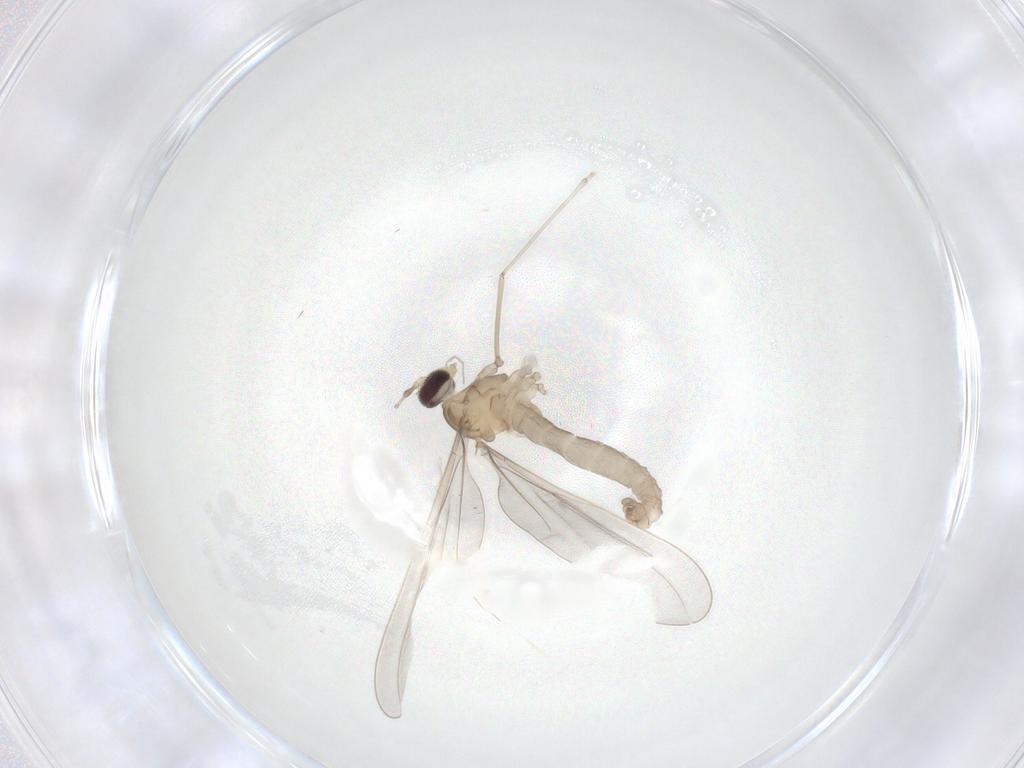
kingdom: Animalia
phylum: Arthropoda
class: Insecta
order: Diptera
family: Cecidomyiidae
